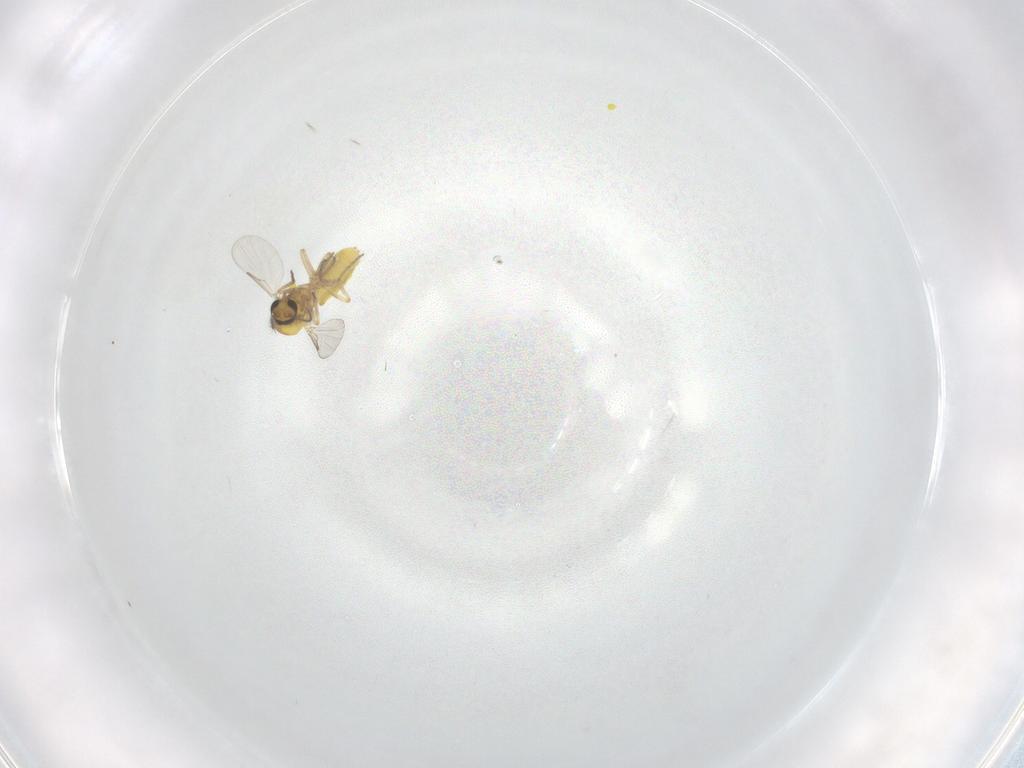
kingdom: Animalia
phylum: Arthropoda
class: Insecta
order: Diptera
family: Ceratopogonidae
